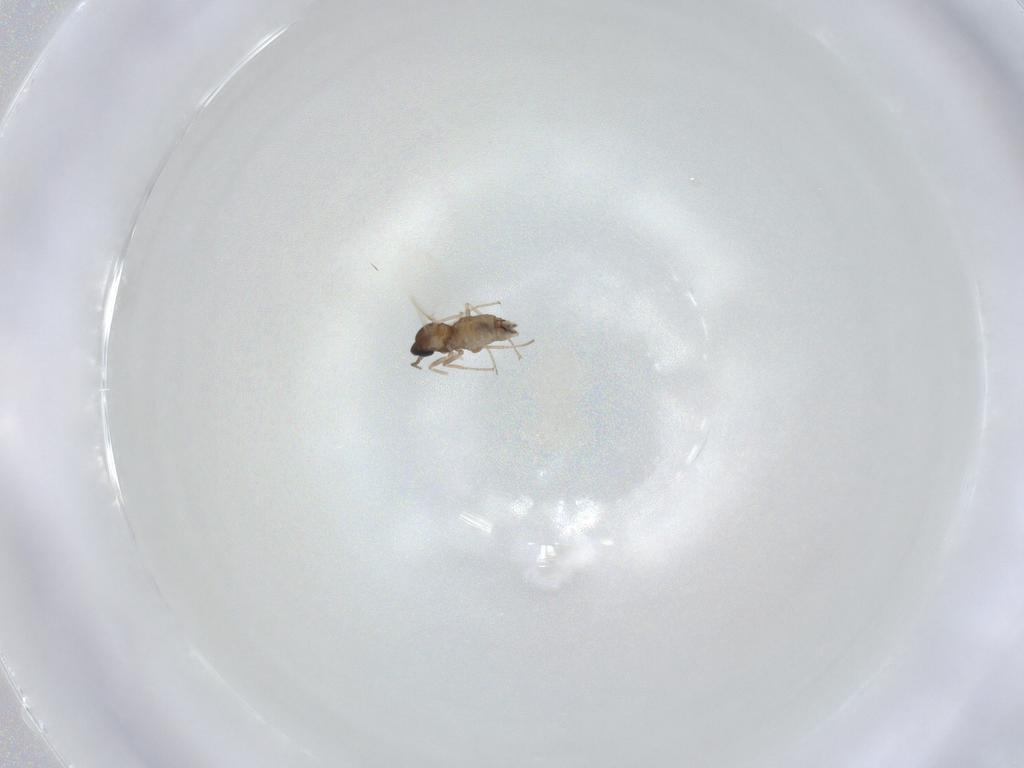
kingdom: Animalia
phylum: Arthropoda
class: Insecta
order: Diptera
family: Cecidomyiidae
